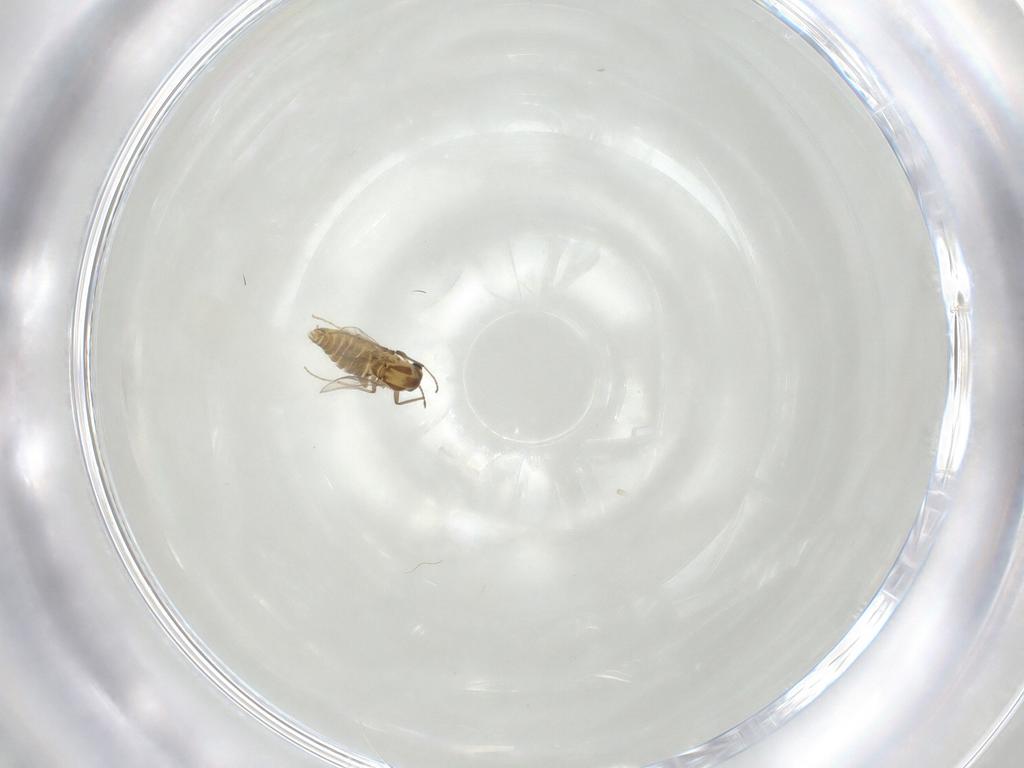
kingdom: Animalia
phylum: Arthropoda
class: Insecta
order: Diptera
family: Chironomidae
